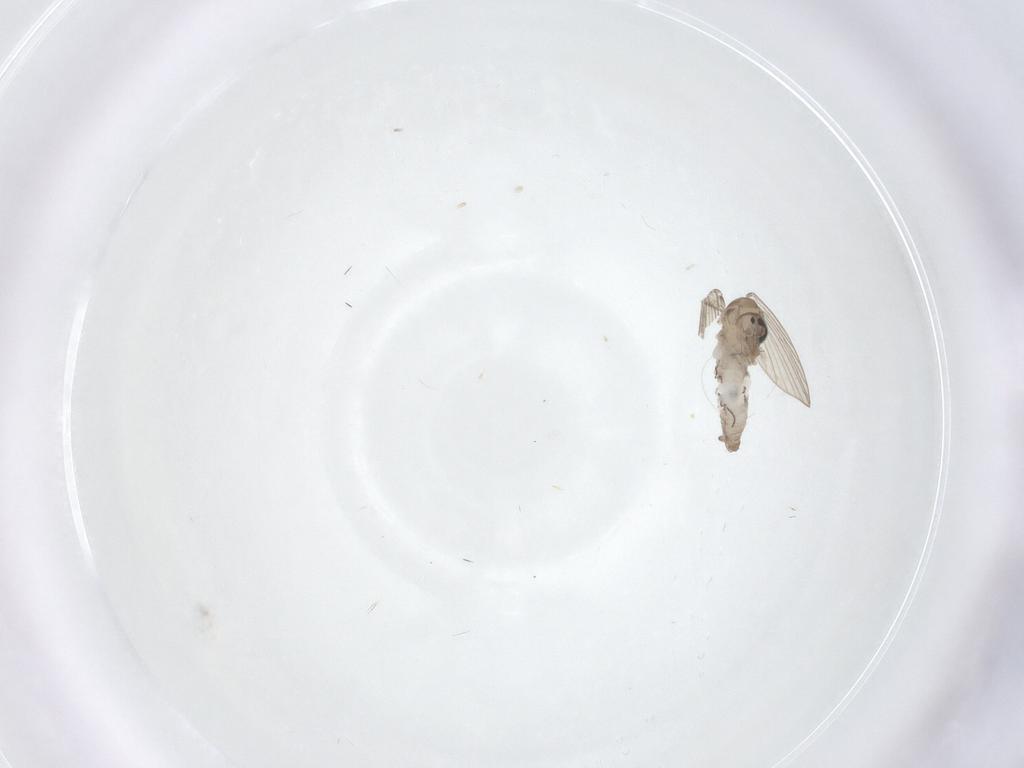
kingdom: Animalia
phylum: Arthropoda
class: Insecta
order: Diptera
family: Psychodidae
